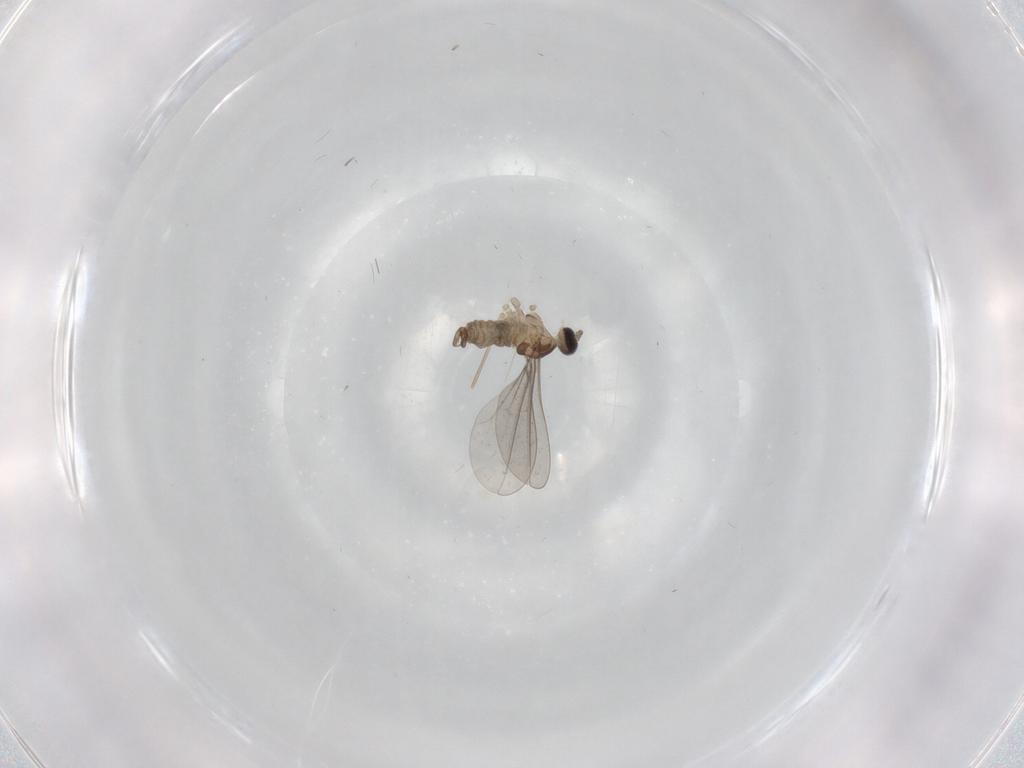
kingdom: Animalia
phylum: Arthropoda
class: Insecta
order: Diptera
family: Cecidomyiidae
